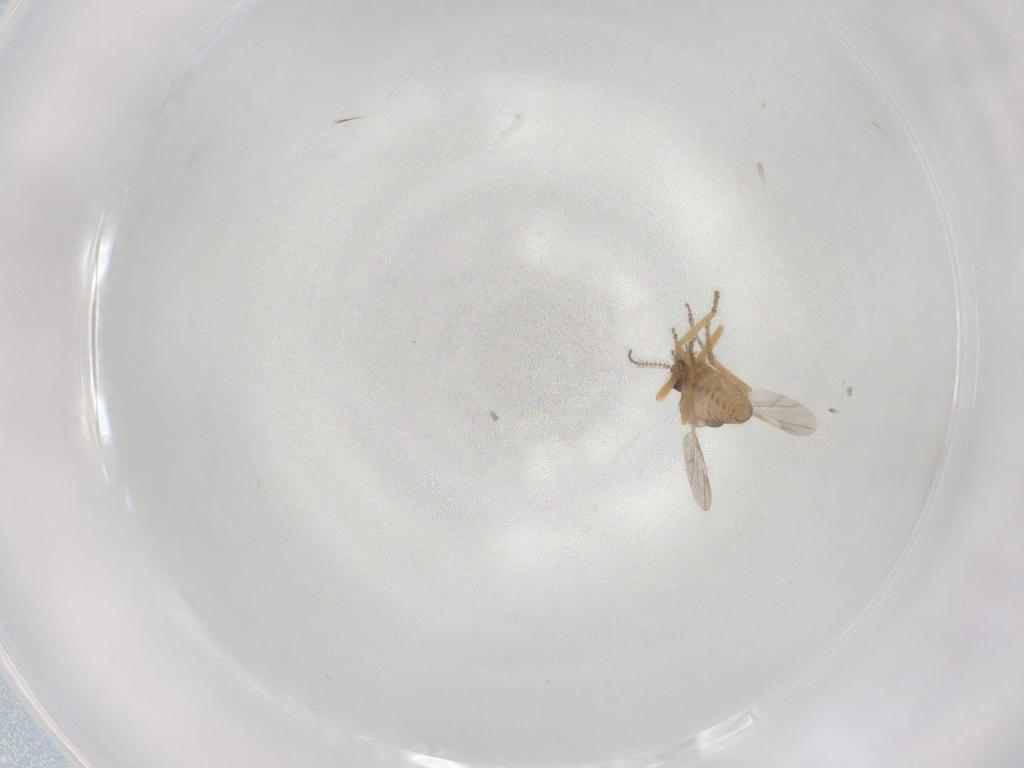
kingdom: Animalia
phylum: Arthropoda
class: Insecta
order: Diptera
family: Ceratopogonidae
